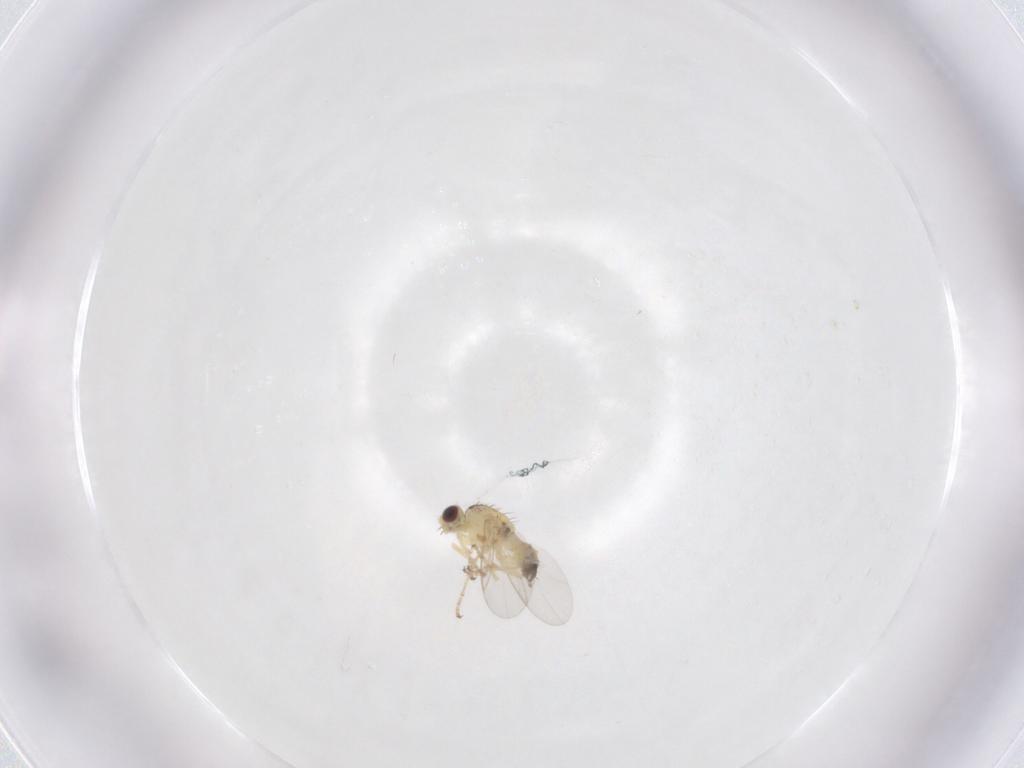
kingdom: Animalia
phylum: Arthropoda
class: Insecta
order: Diptera
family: Agromyzidae
